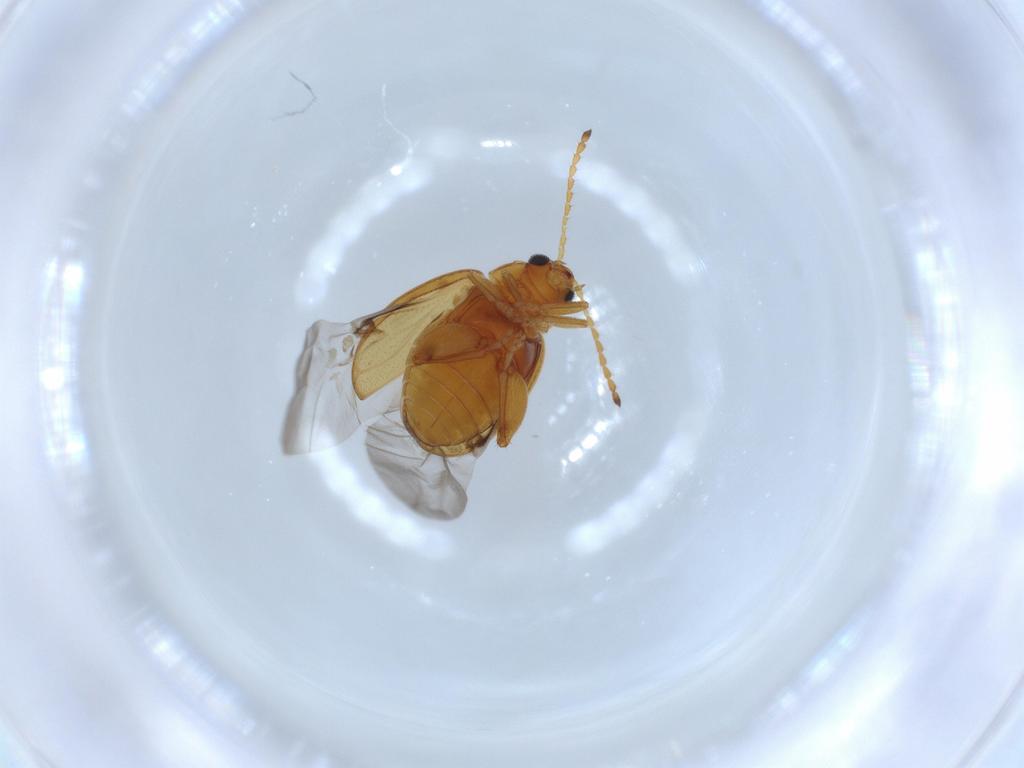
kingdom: Animalia
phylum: Arthropoda
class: Insecta
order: Coleoptera
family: Chrysomelidae
